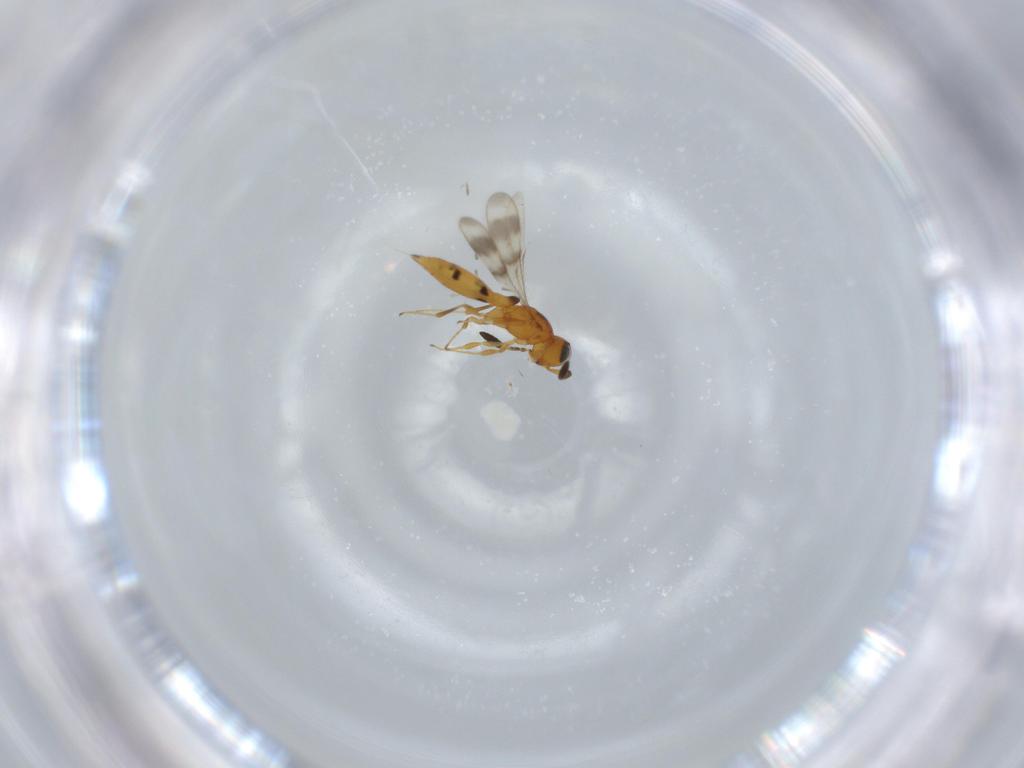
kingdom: Animalia
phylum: Arthropoda
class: Insecta
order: Hymenoptera
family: Scelionidae
